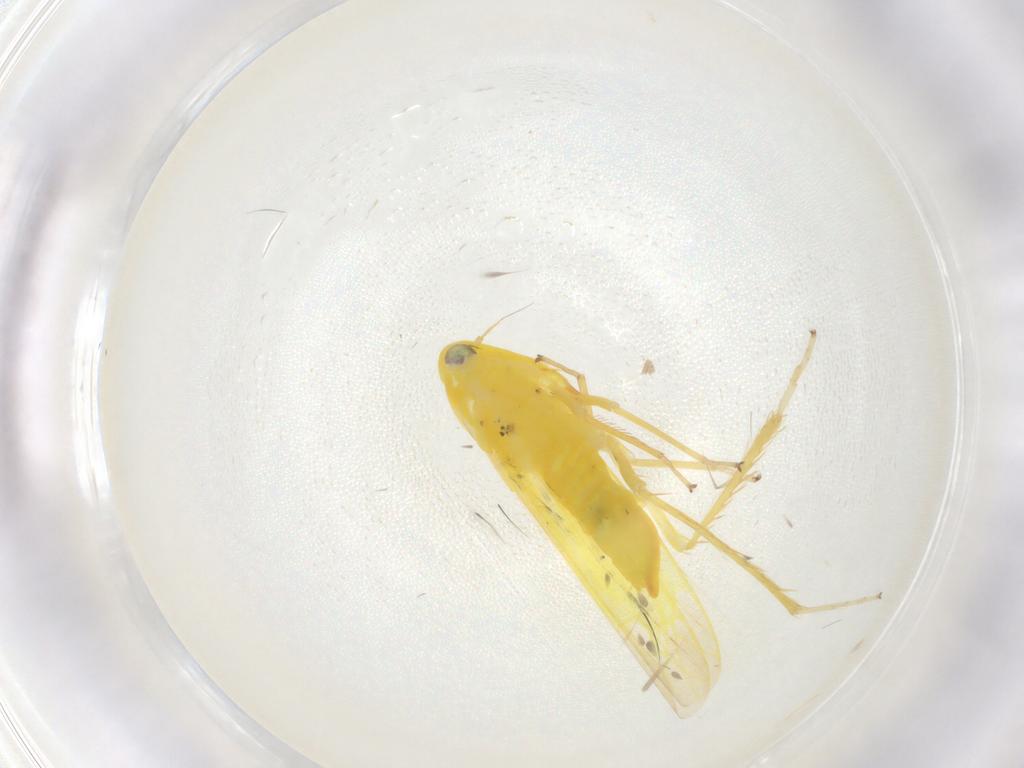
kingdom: Animalia
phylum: Arthropoda
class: Insecta
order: Hemiptera
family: Cicadellidae
